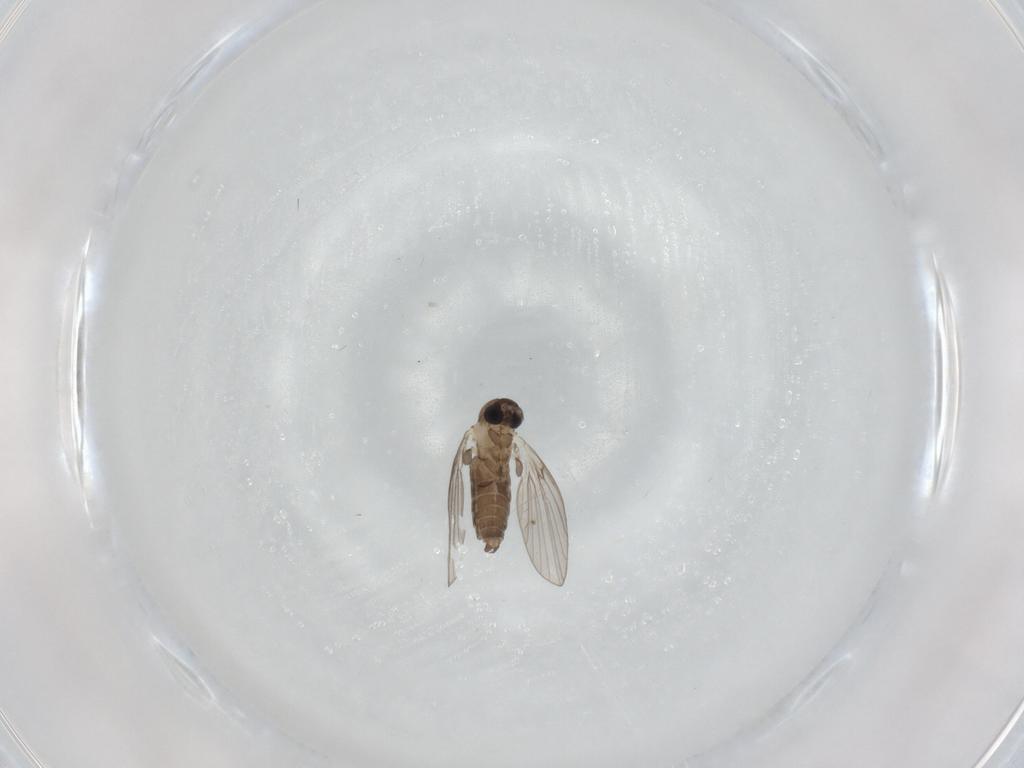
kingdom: Animalia
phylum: Arthropoda
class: Insecta
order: Diptera
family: Psychodidae
